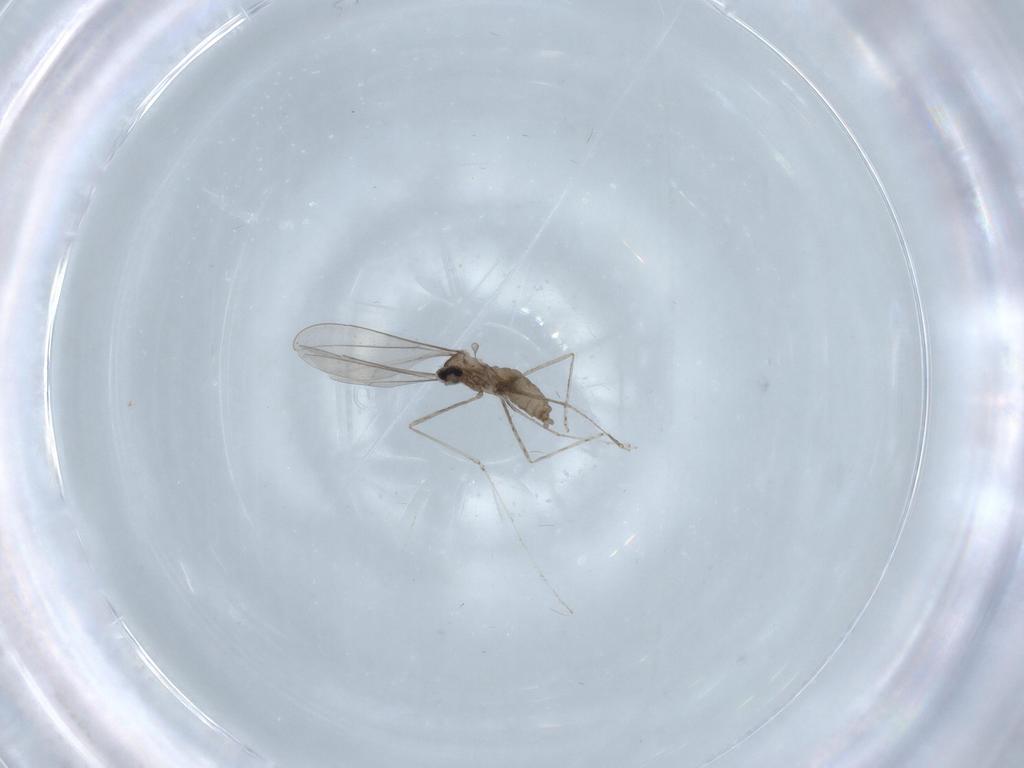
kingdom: Animalia
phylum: Arthropoda
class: Insecta
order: Diptera
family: Cecidomyiidae
